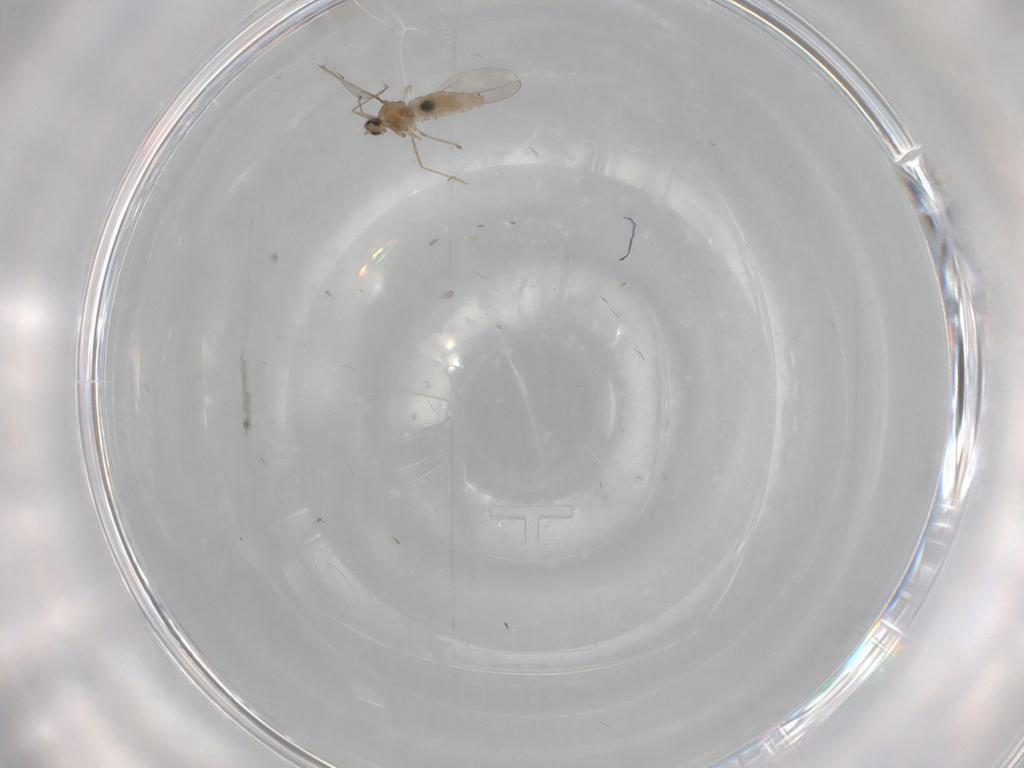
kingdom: Animalia
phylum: Arthropoda
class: Insecta
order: Diptera
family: Cecidomyiidae
